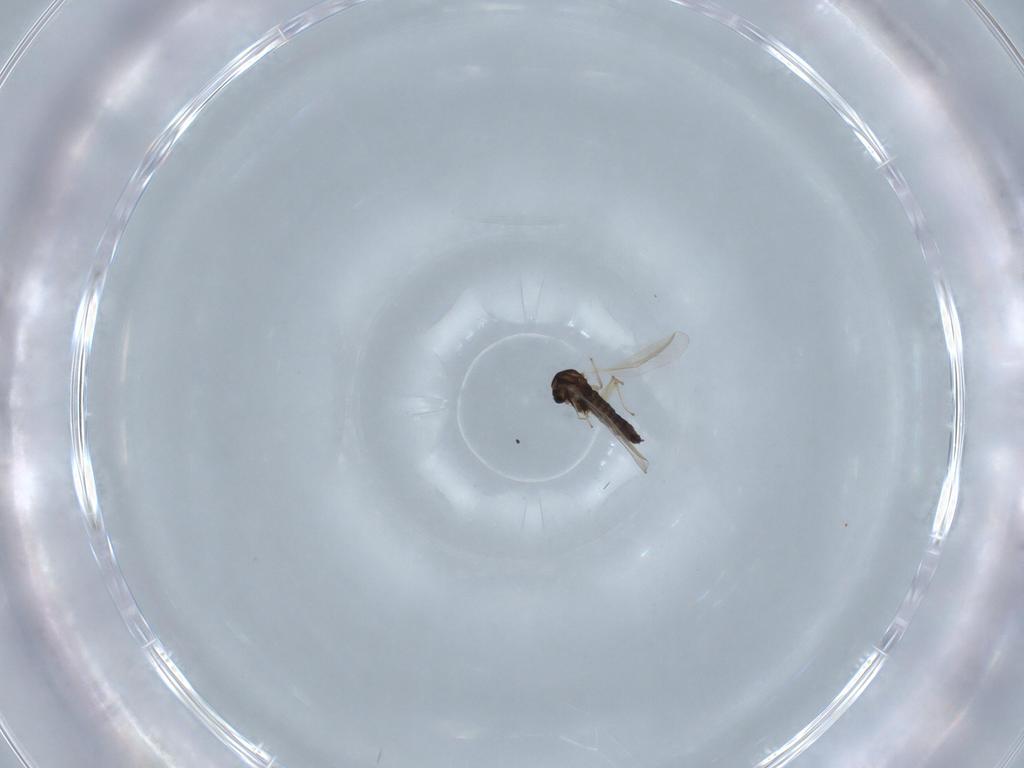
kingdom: Animalia
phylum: Arthropoda
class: Insecta
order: Diptera
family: Chironomidae
